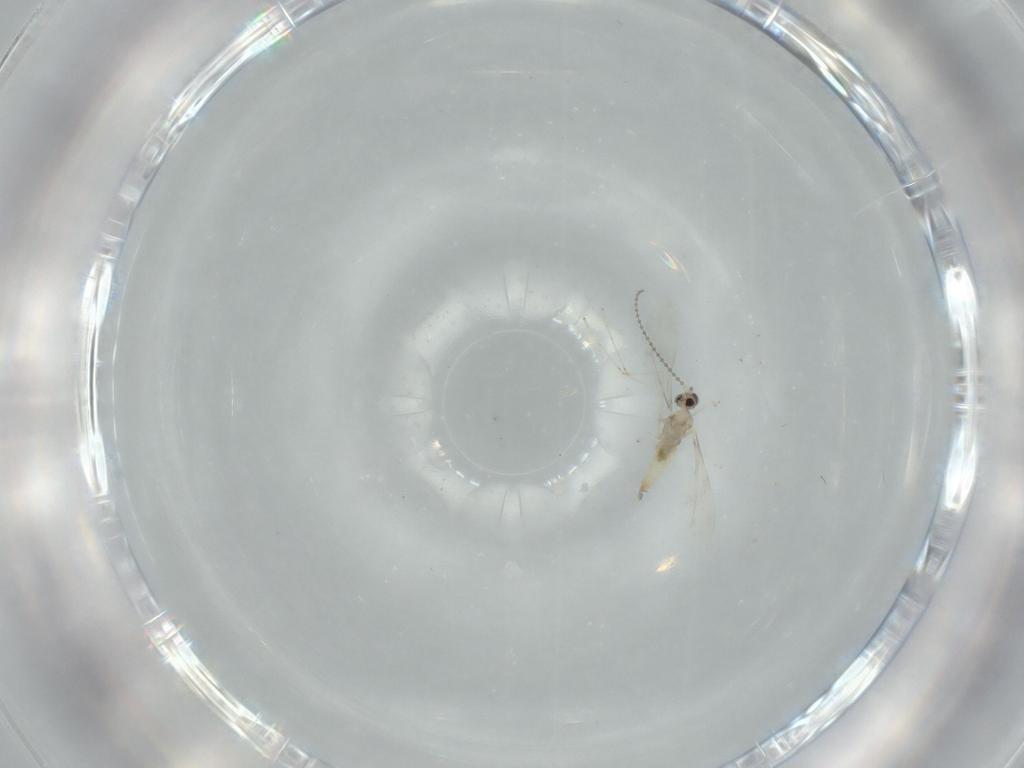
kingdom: Animalia
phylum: Arthropoda
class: Insecta
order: Diptera
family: Cecidomyiidae
